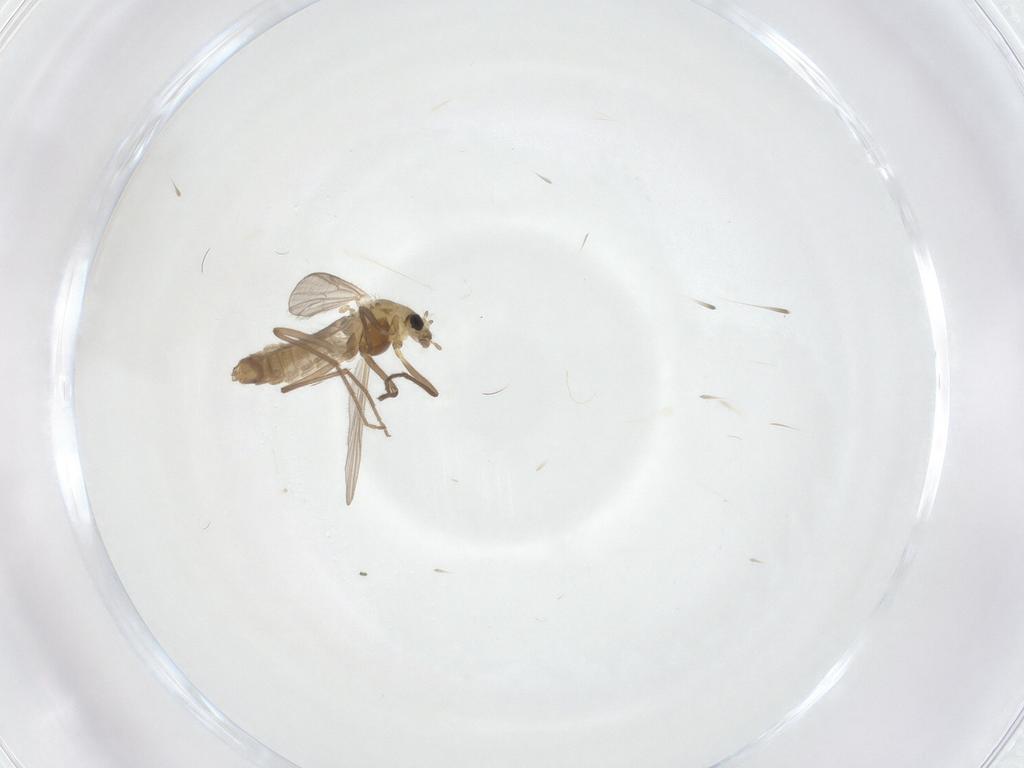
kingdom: Animalia
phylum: Arthropoda
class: Insecta
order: Diptera
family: Chironomidae
